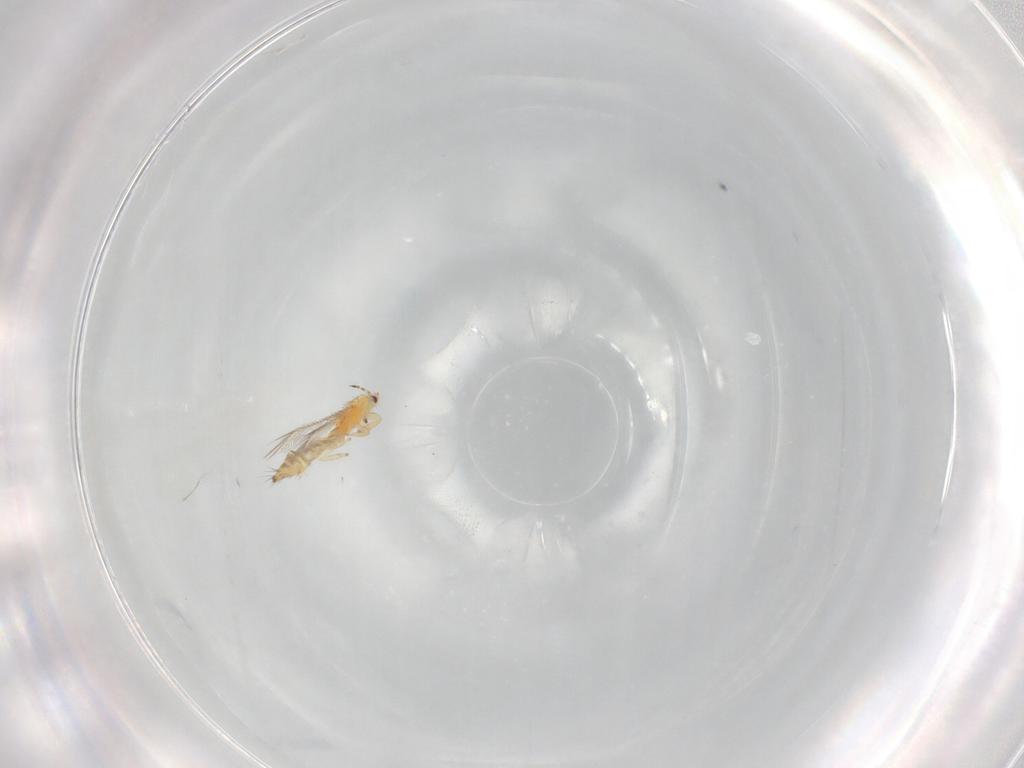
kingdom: Animalia
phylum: Arthropoda
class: Insecta
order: Thysanoptera
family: Thripidae
